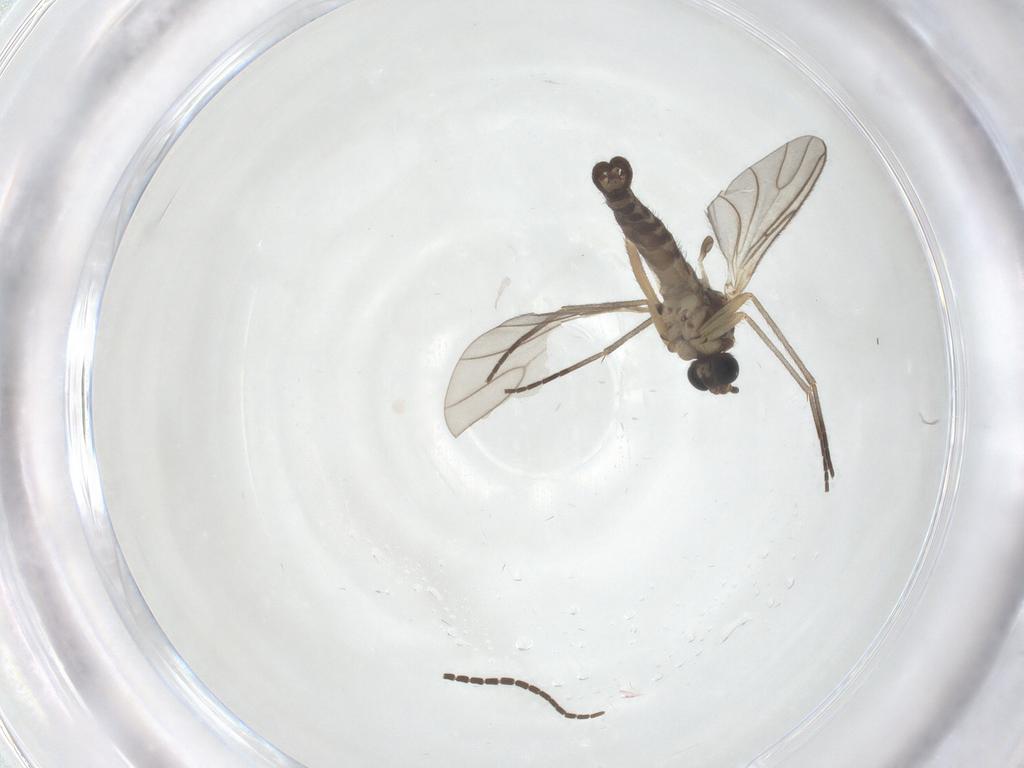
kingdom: Animalia
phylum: Arthropoda
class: Insecta
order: Diptera
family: Sciaridae
